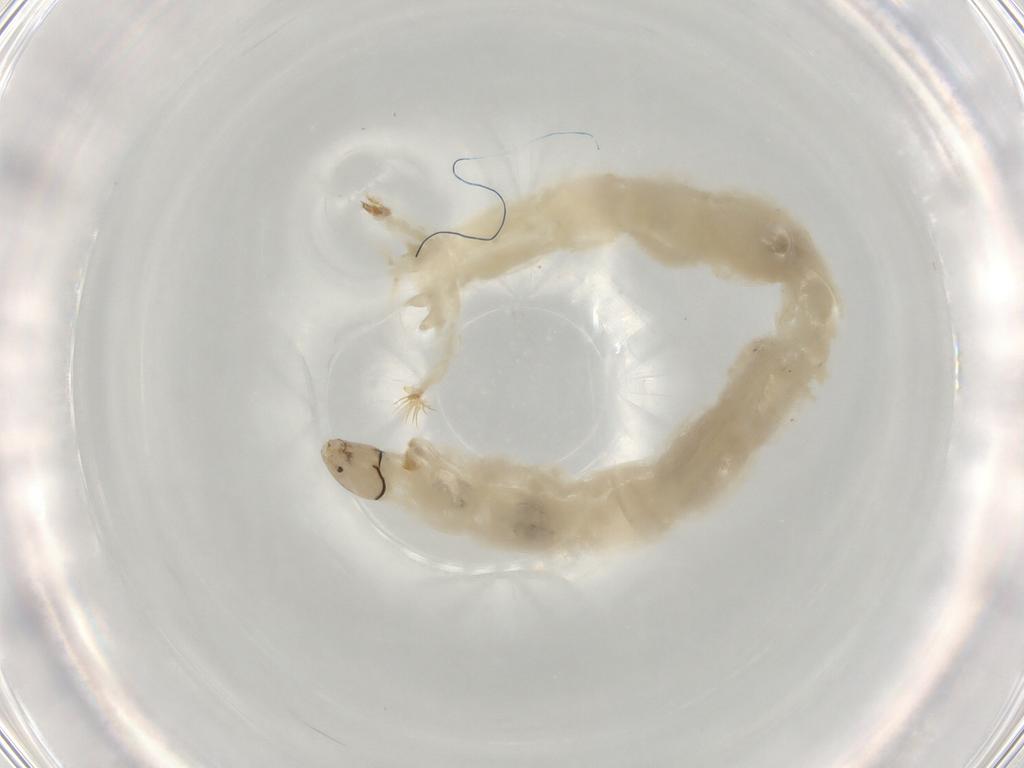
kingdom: Animalia
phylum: Arthropoda
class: Insecta
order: Diptera
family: Chironomidae
